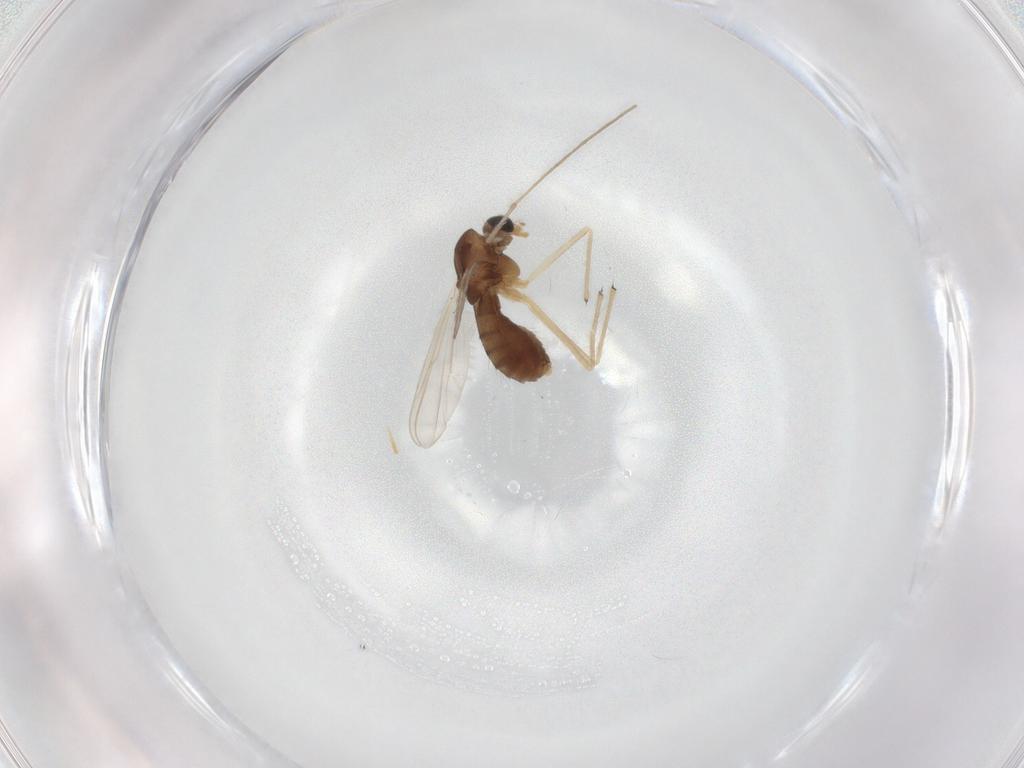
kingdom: Animalia
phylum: Arthropoda
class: Insecta
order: Diptera
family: Chironomidae
